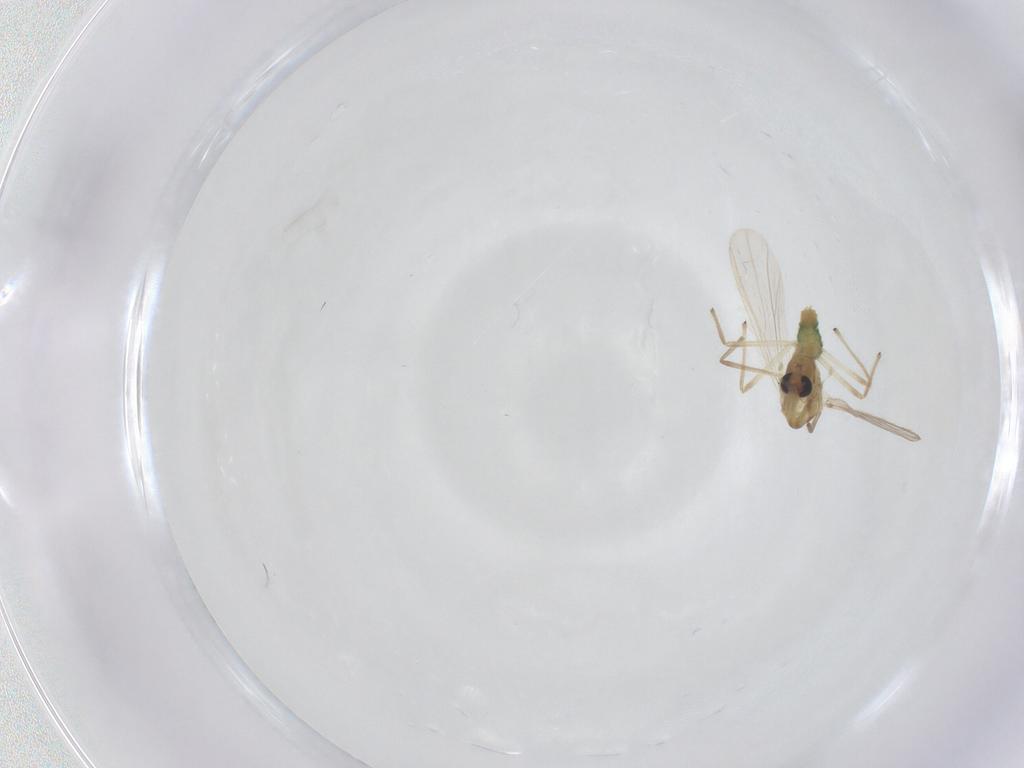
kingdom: Animalia
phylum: Arthropoda
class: Insecta
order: Diptera
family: Chironomidae
